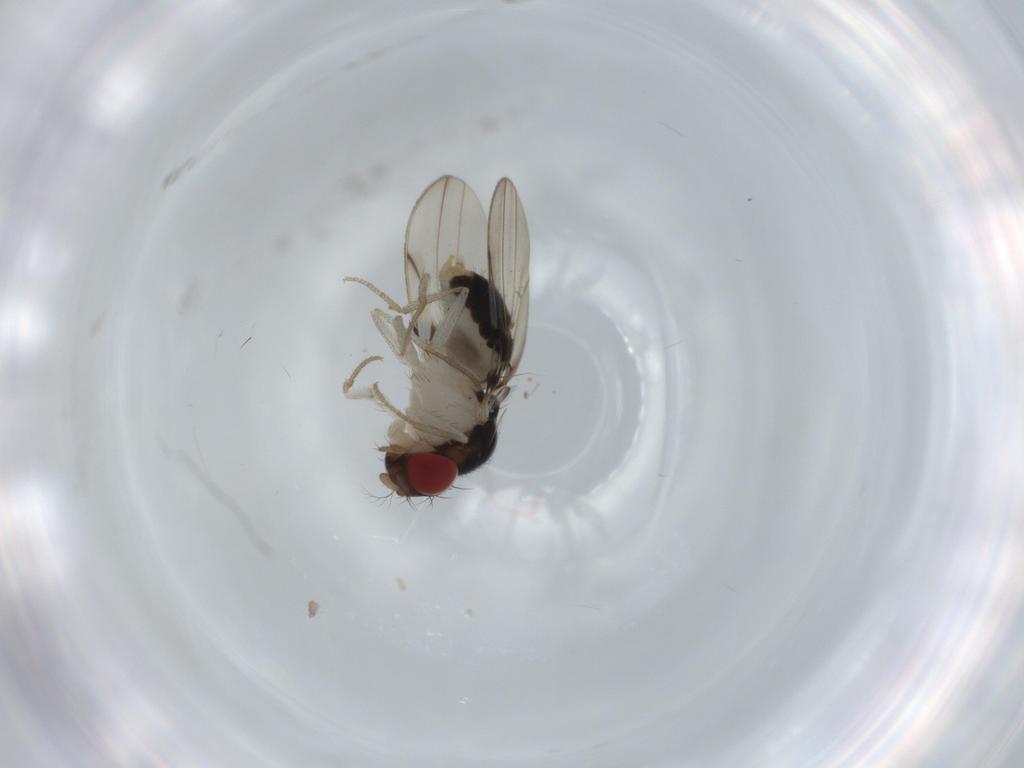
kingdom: Animalia
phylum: Arthropoda
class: Insecta
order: Diptera
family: Drosophilidae
